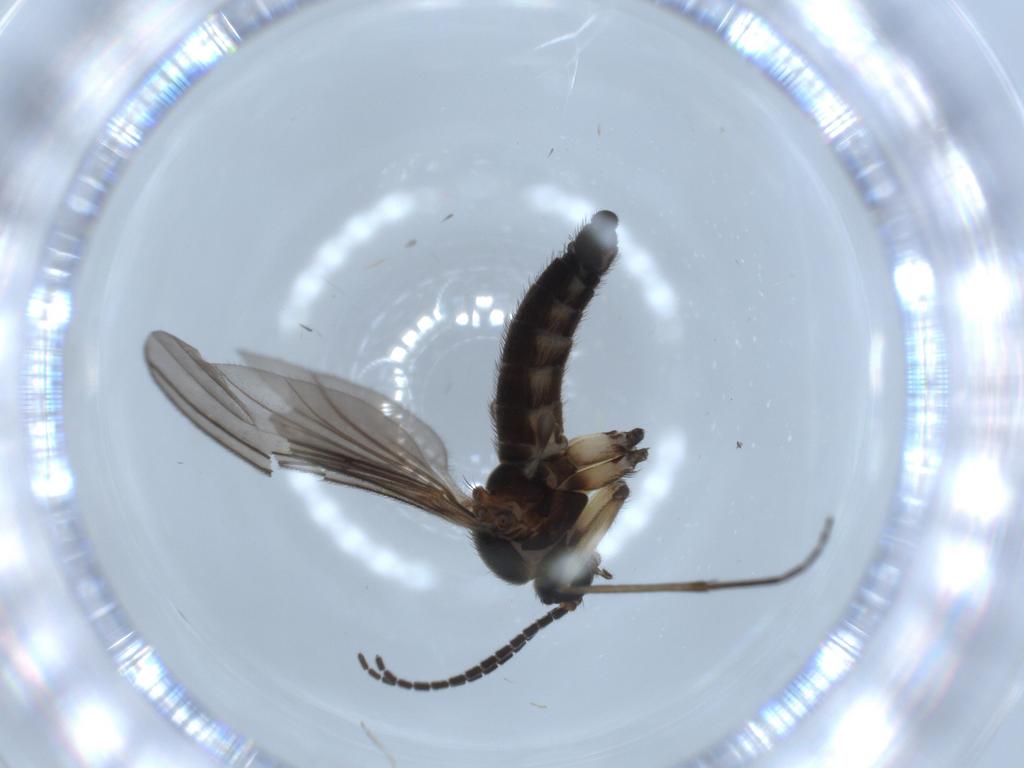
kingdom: Animalia
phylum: Arthropoda
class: Insecta
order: Diptera
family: Sciaridae
